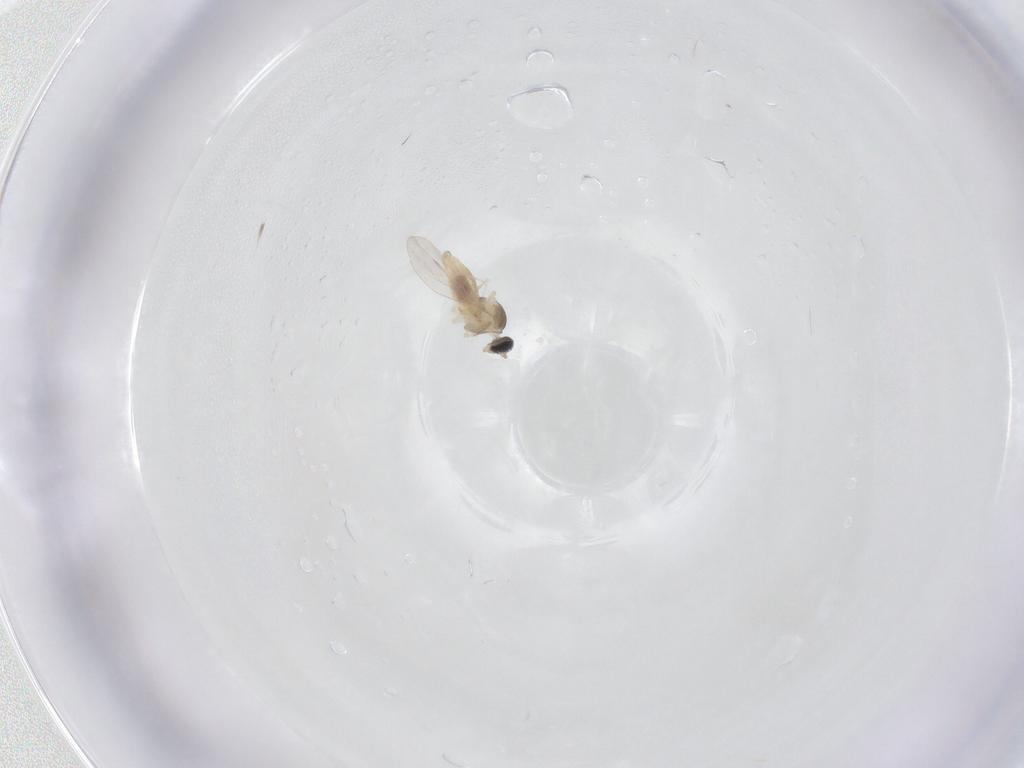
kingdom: Animalia
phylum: Arthropoda
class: Insecta
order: Diptera
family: Cecidomyiidae
